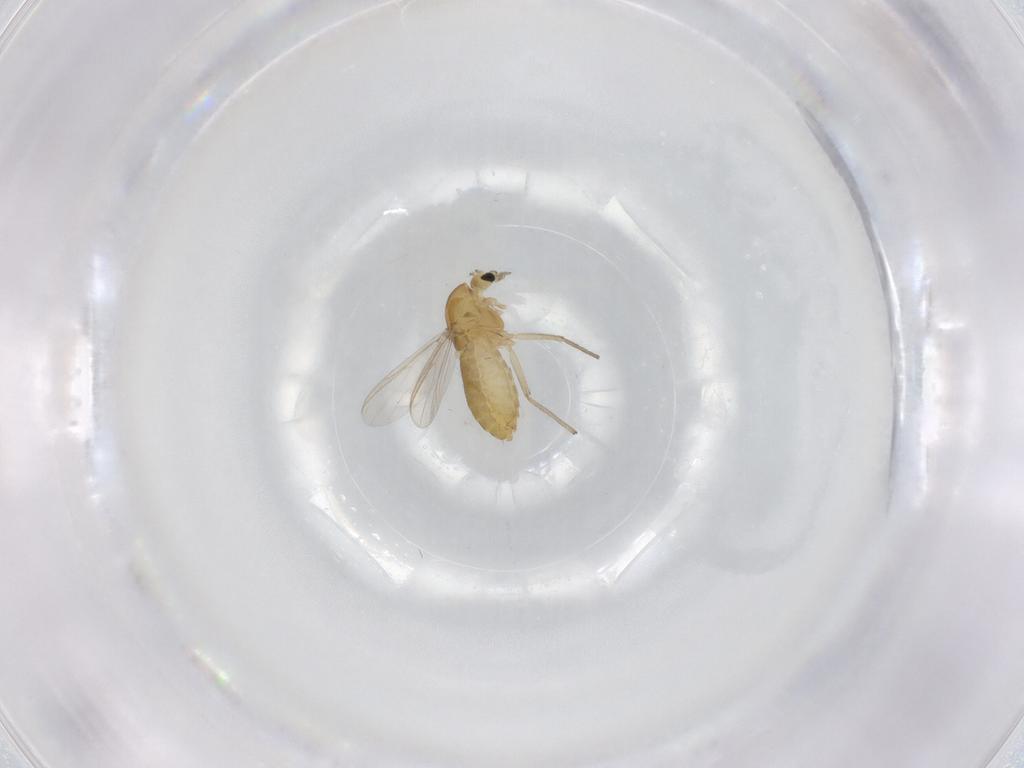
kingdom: Animalia
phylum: Arthropoda
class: Insecta
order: Diptera
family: Chironomidae
